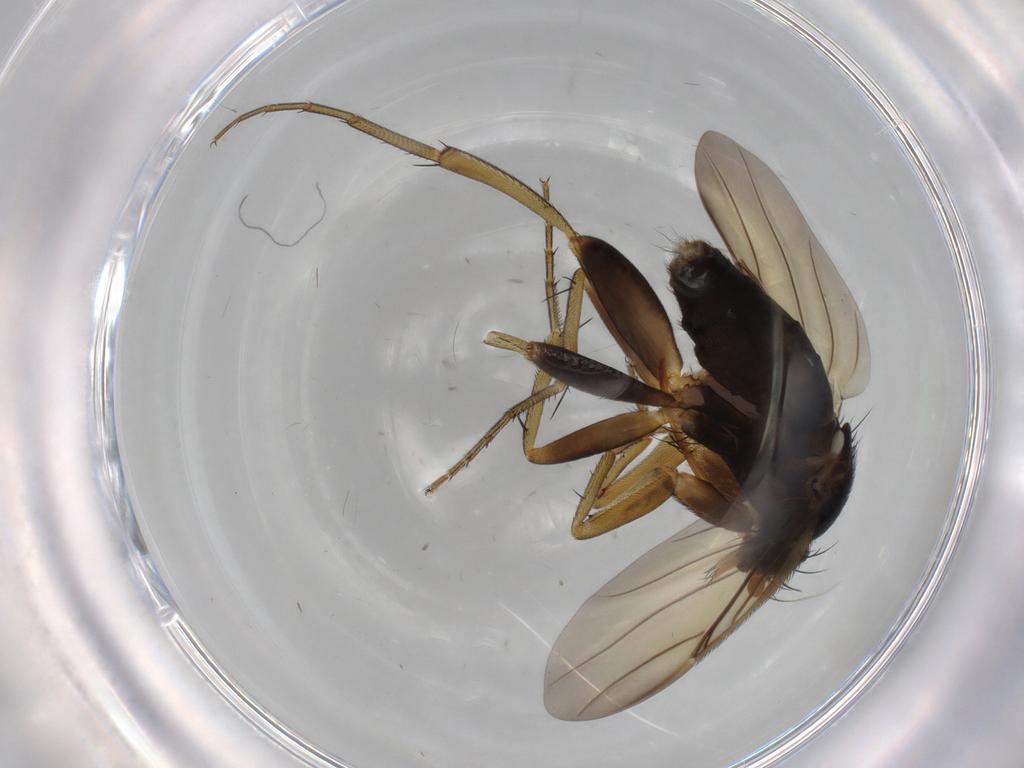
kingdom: Animalia
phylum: Arthropoda
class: Insecta
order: Diptera
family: Phoridae
